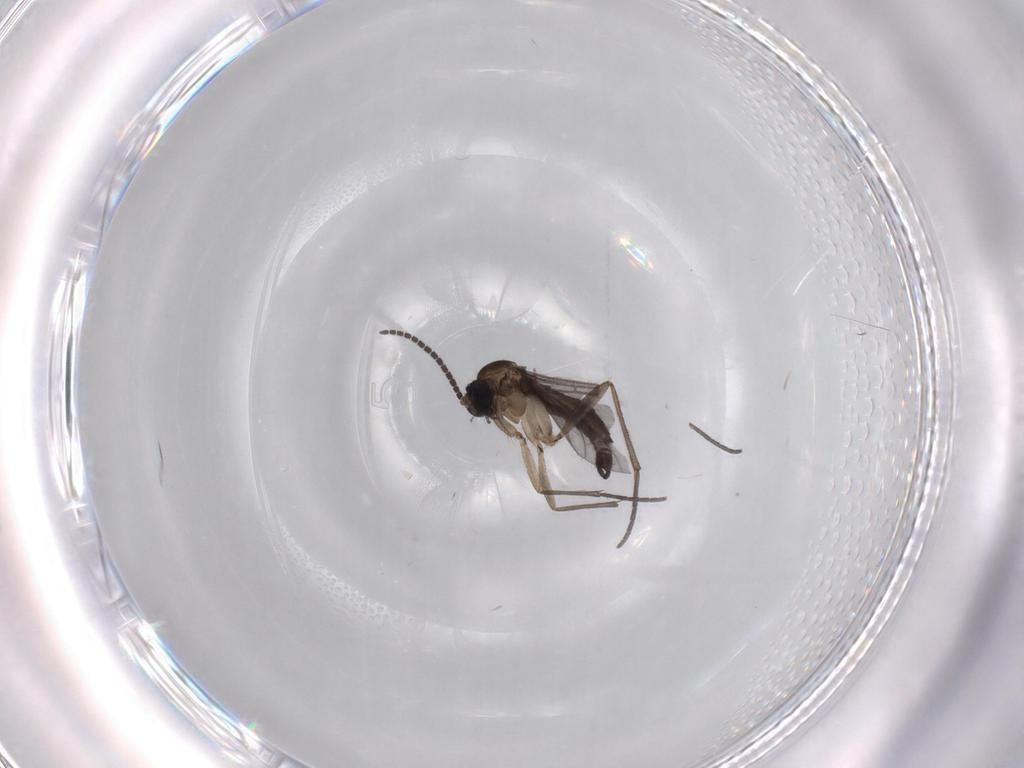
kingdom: Animalia
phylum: Arthropoda
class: Insecta
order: Diptera
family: Sciaridae
